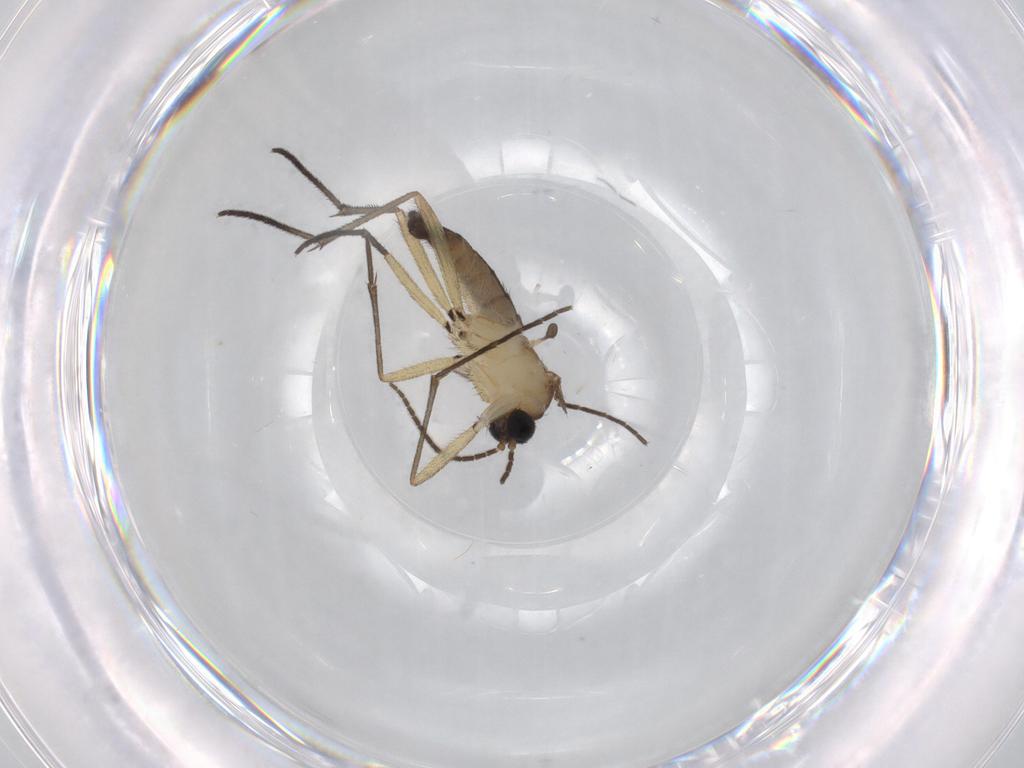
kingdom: Animalia
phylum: Arthropoda
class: Insecta
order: Diptera
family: Sciaridae
